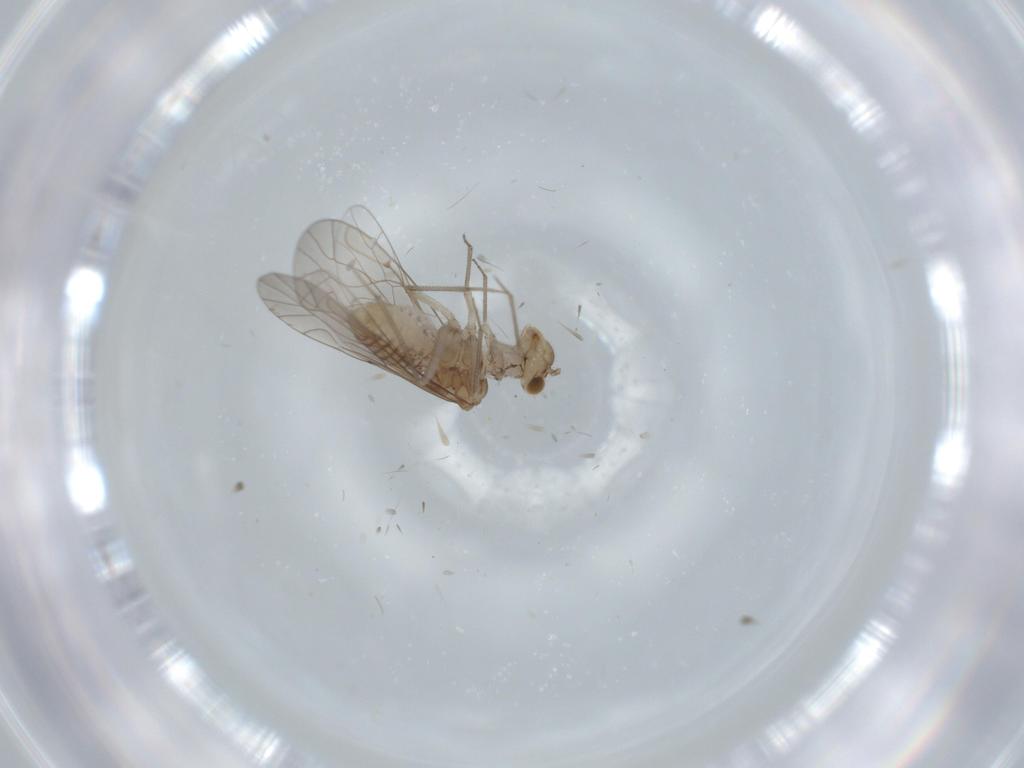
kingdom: Animalia
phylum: Arthropoda
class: Insecta
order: Psocodea
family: Lachesillidae
